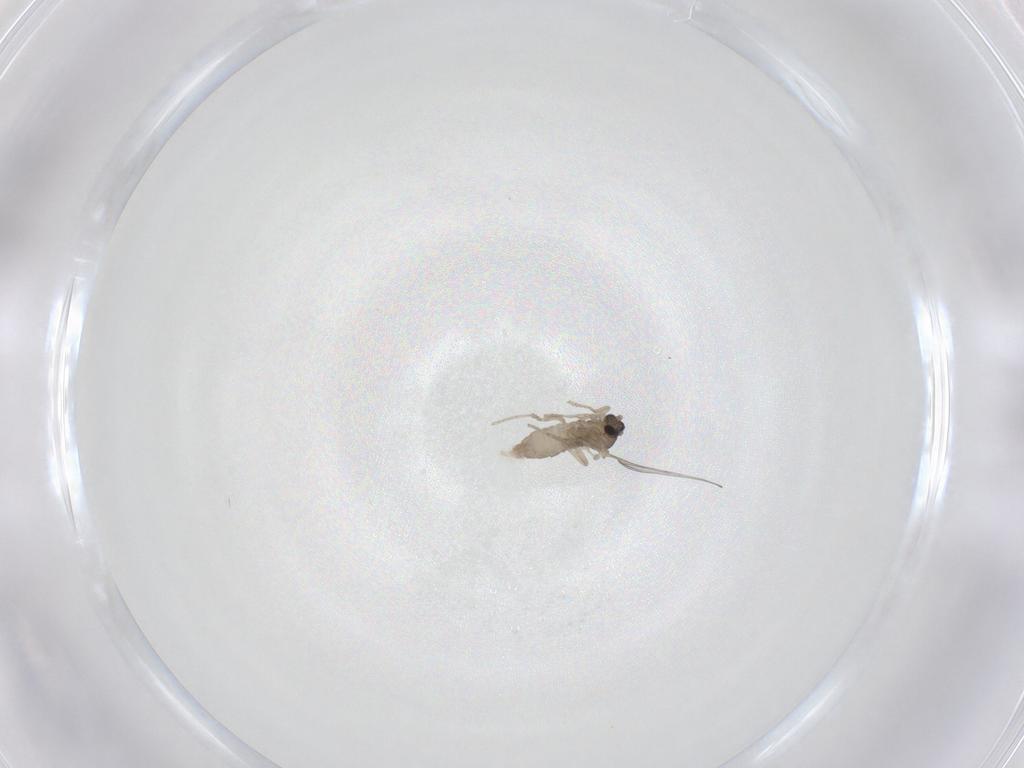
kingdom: Animalia
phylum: Arthropoda
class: Insecta
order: Diptera
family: Cecidomyiidae
